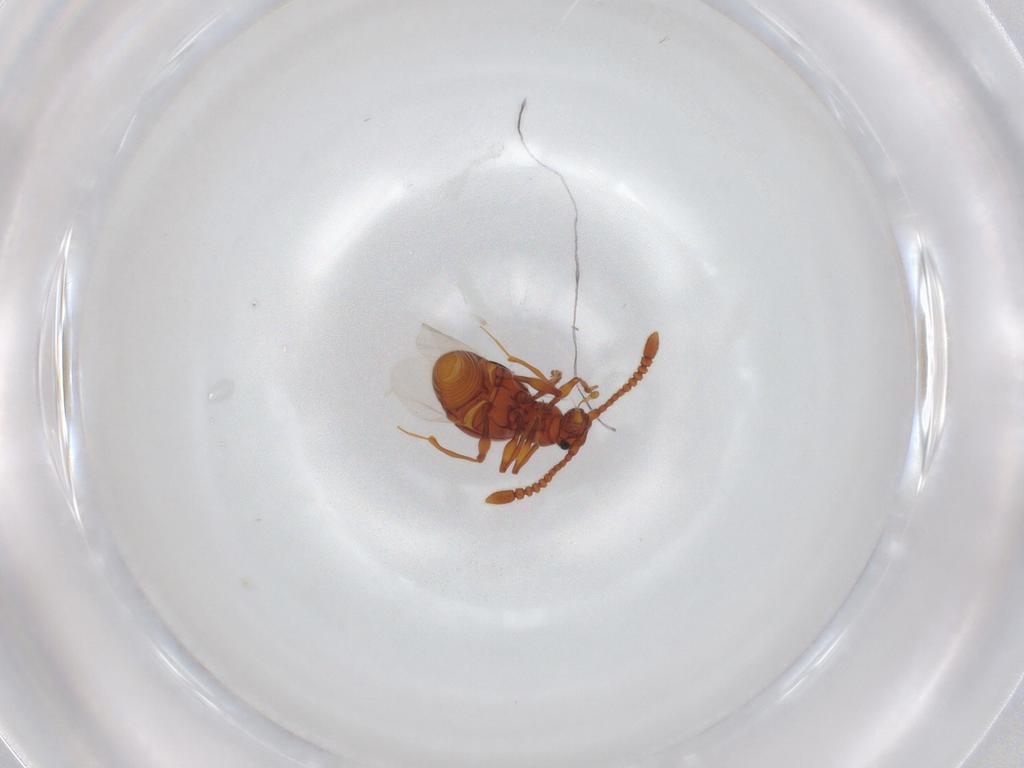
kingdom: Animalia
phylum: Arthropoda
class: Insecta
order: Coleoptera
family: Staphylinidae
